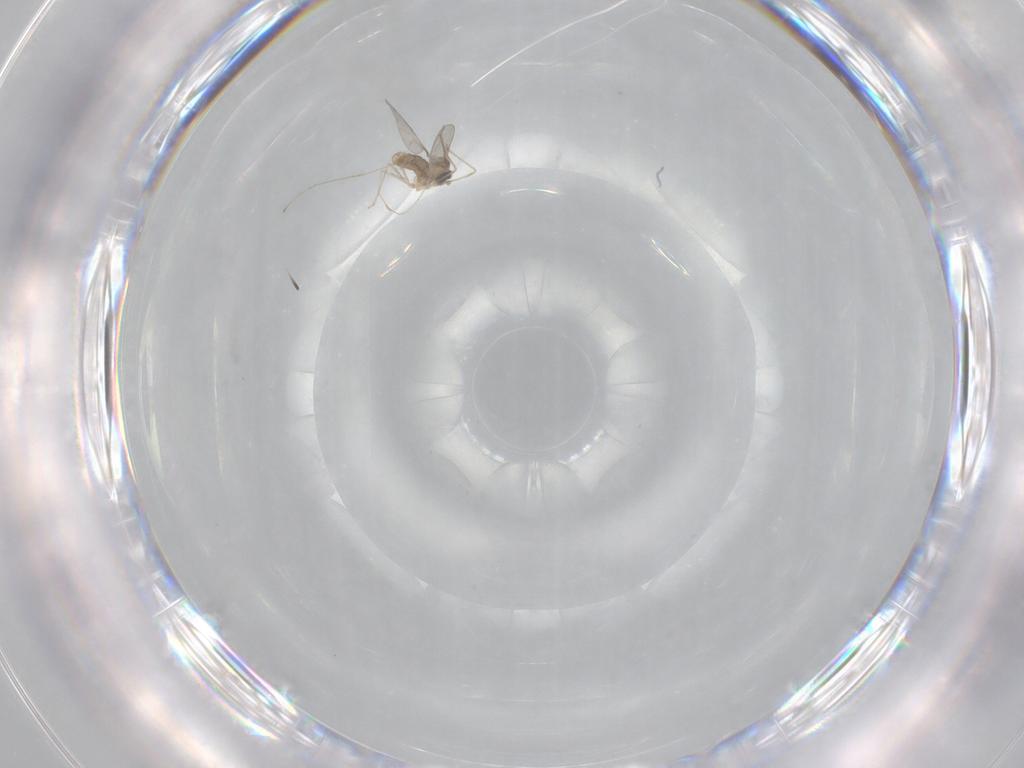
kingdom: Animalia
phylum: Arthropoda
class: Insecta
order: Diptera
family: Cecidomyiidae
